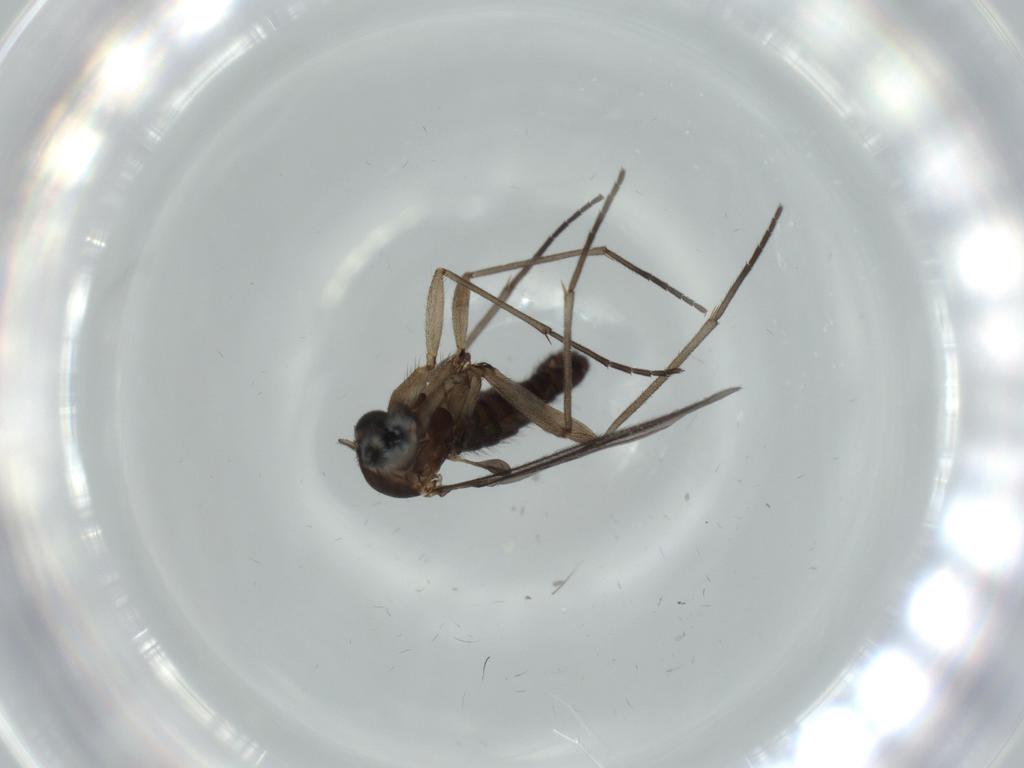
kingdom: Animalia
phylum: Arthropoda
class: Insecta
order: Diptera
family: Sciaridae
